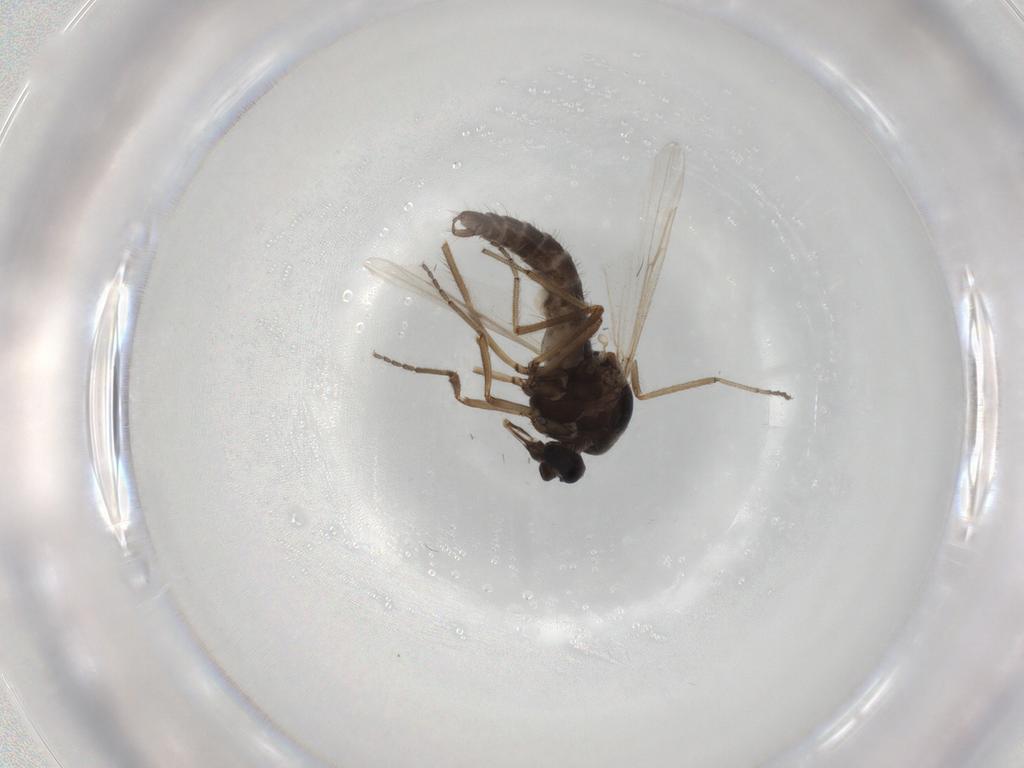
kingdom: Animalia
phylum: Arthropoda
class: Insecta
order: Diptera
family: Ceratopogonidae
